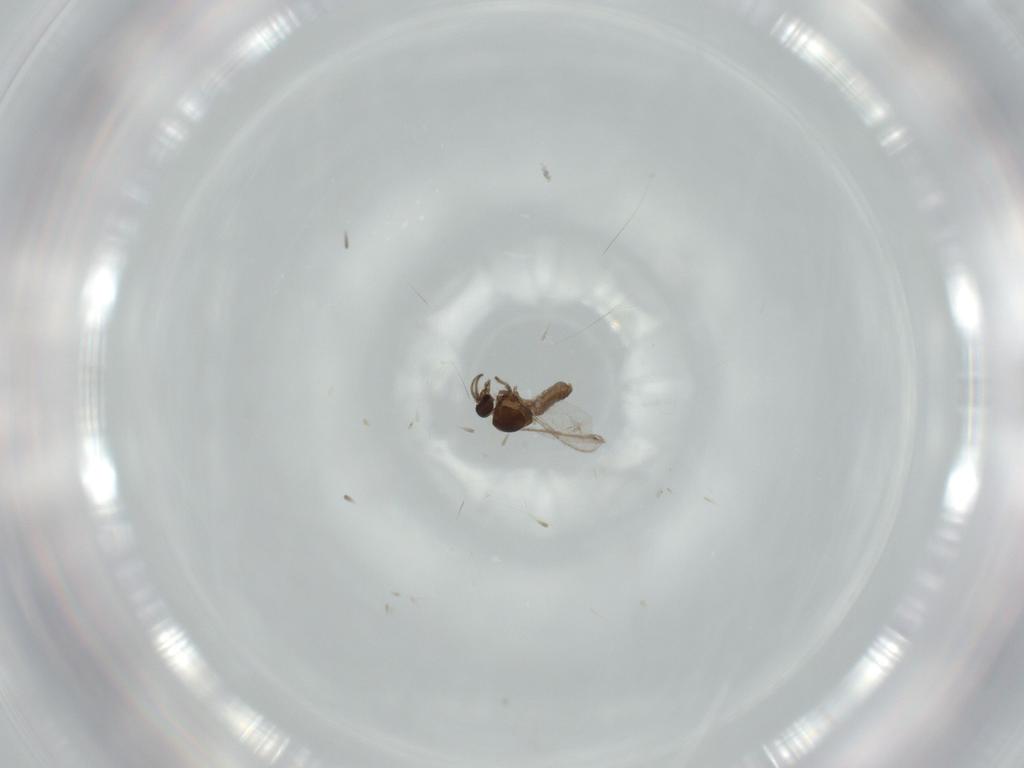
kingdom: Animalia
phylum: Arthropoda
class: Insecta
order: Diptera
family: Ceratopogonidae
